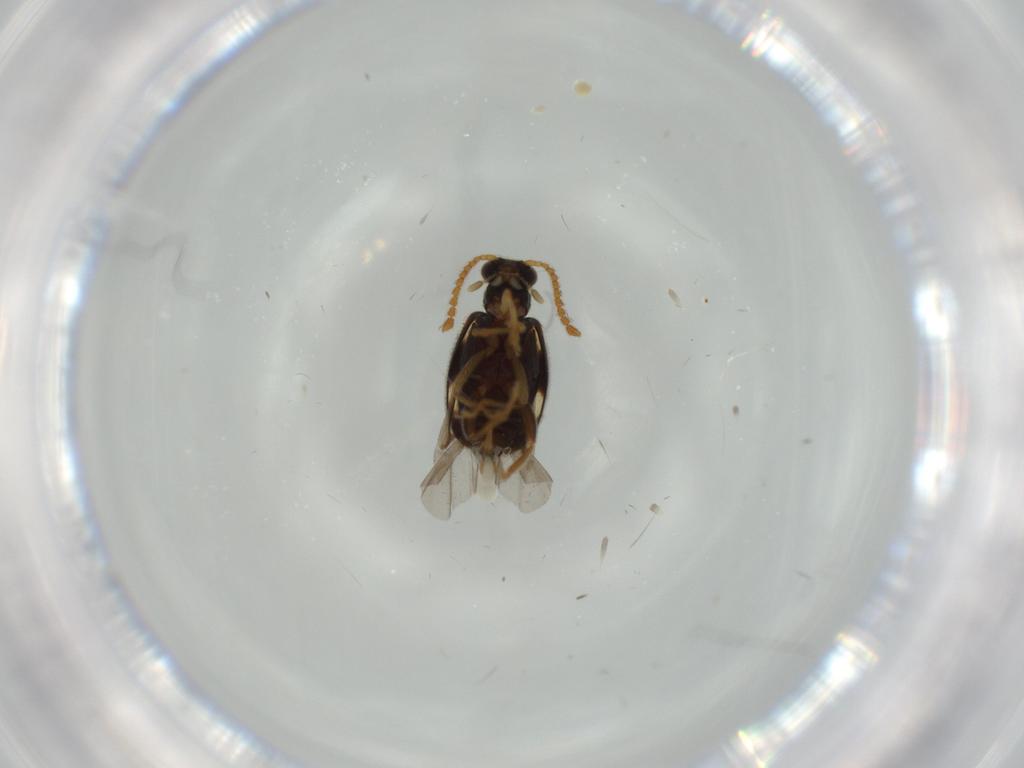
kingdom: Animalia
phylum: Arthropoda
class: Insecta
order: Coleoptera
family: Aderidae
